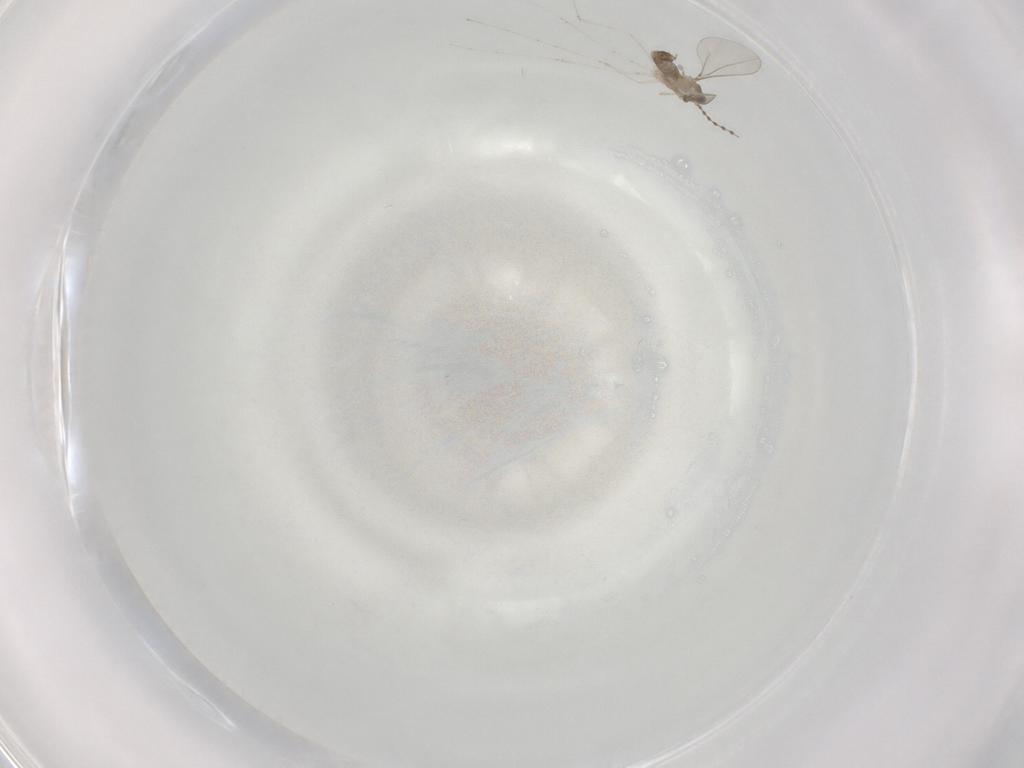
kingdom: Animalia
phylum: Arthropoda
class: Insecta
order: Diptera
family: Cecidomyiidae
